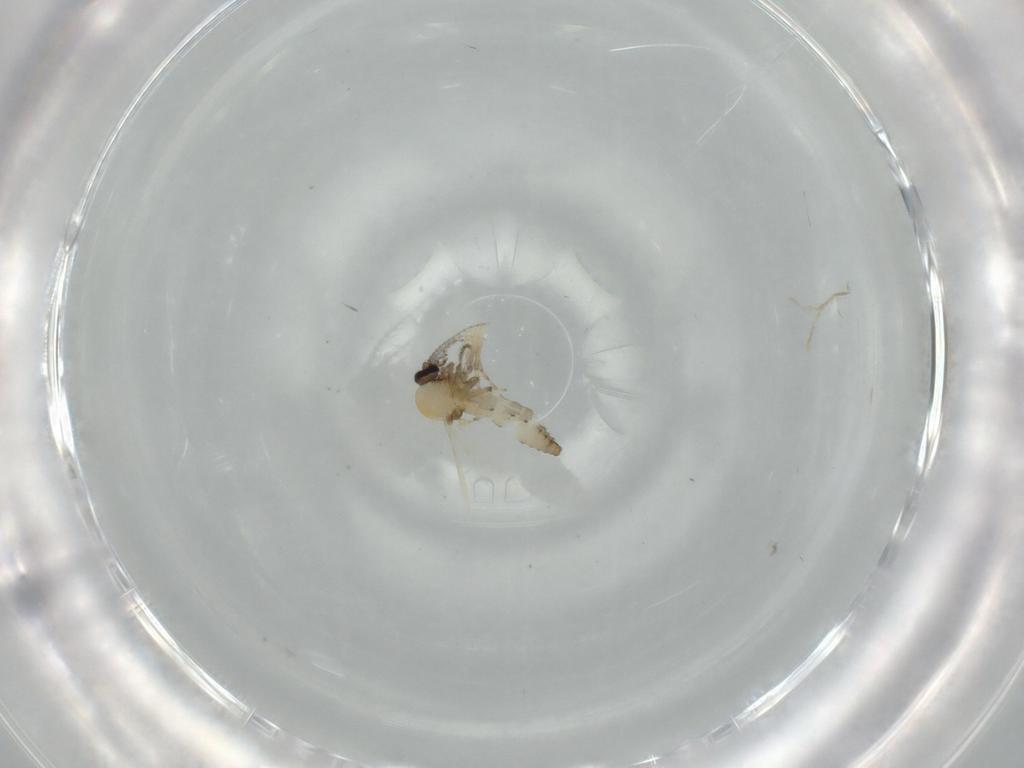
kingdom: Animalia
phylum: Arthropoda
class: Insecta
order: Diptera
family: Ceratopogonidae
